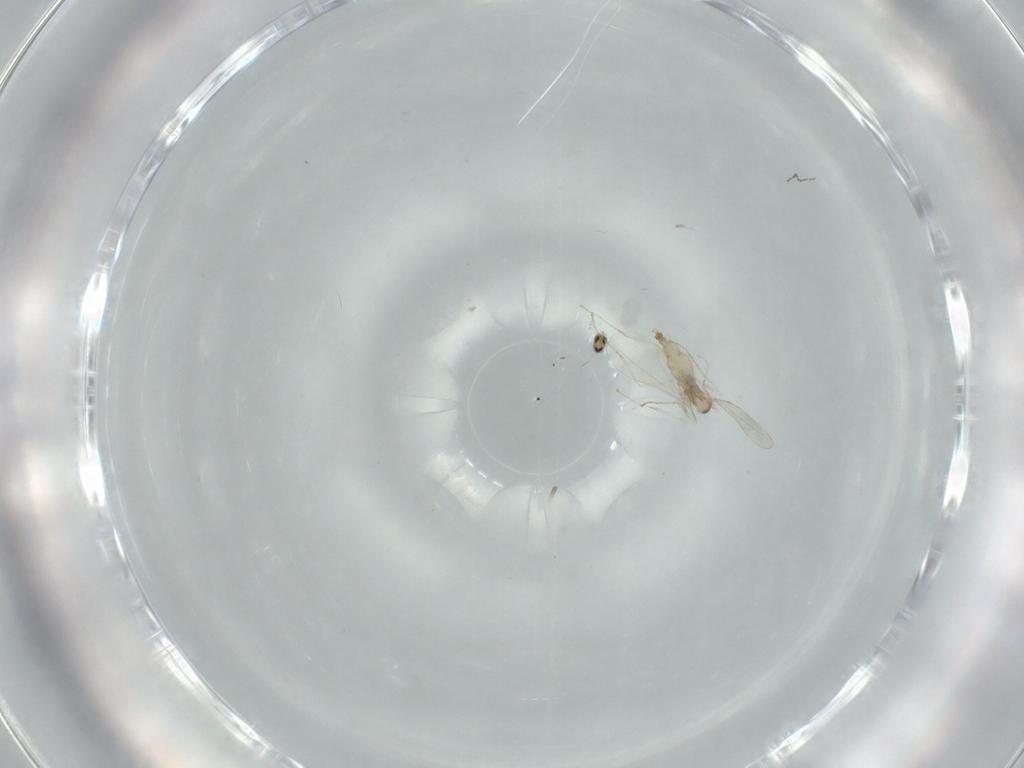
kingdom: Animalia
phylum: Arthropoda
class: Insecta
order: Diptera
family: Cecidomyiidae
